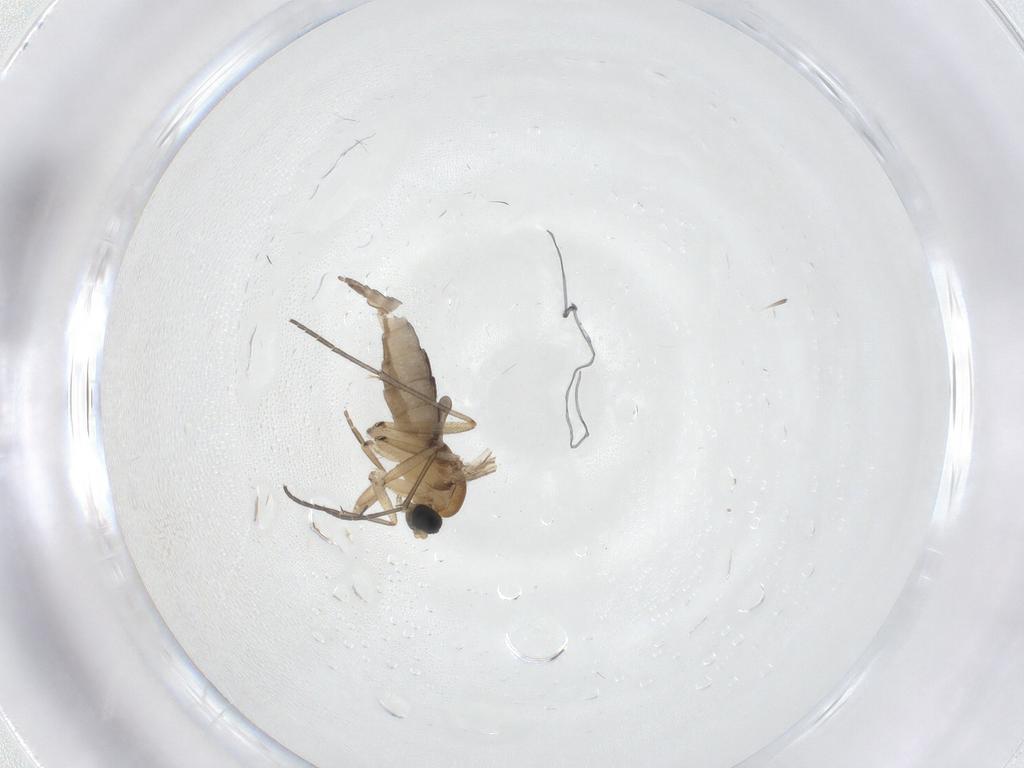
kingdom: Animalia
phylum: Arthropoda
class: Insecta
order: Diptera
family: Sciaridae
